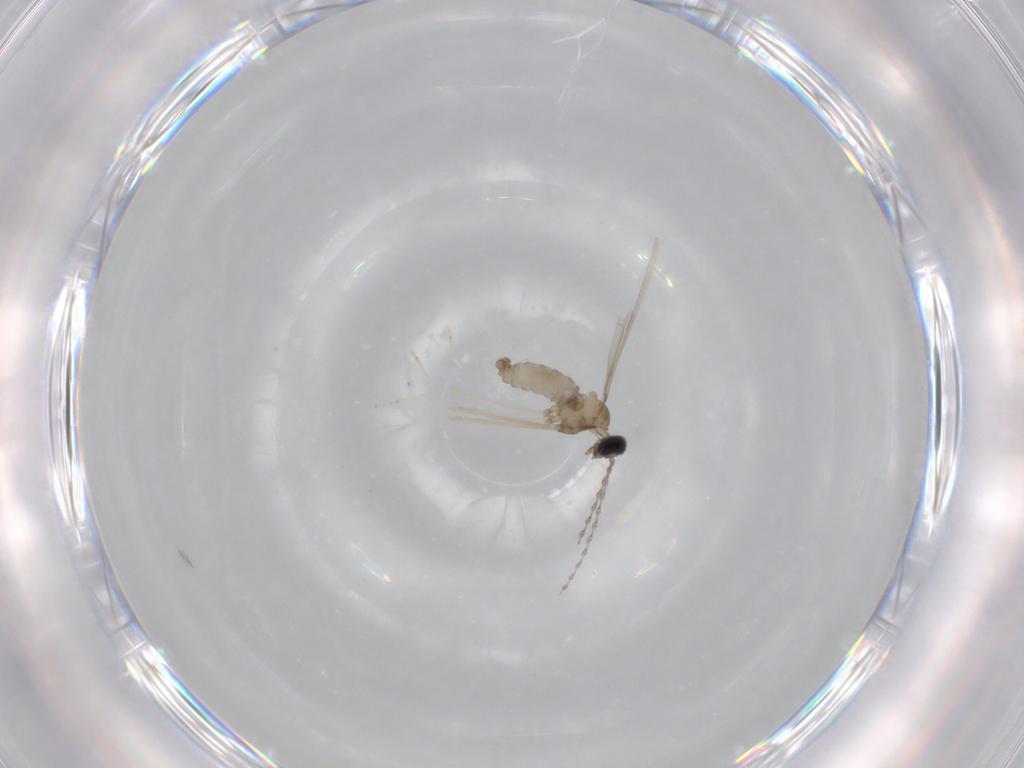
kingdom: Animalia
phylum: Arthropoda
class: Insecta
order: Diptera
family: Cecidomyiidae
